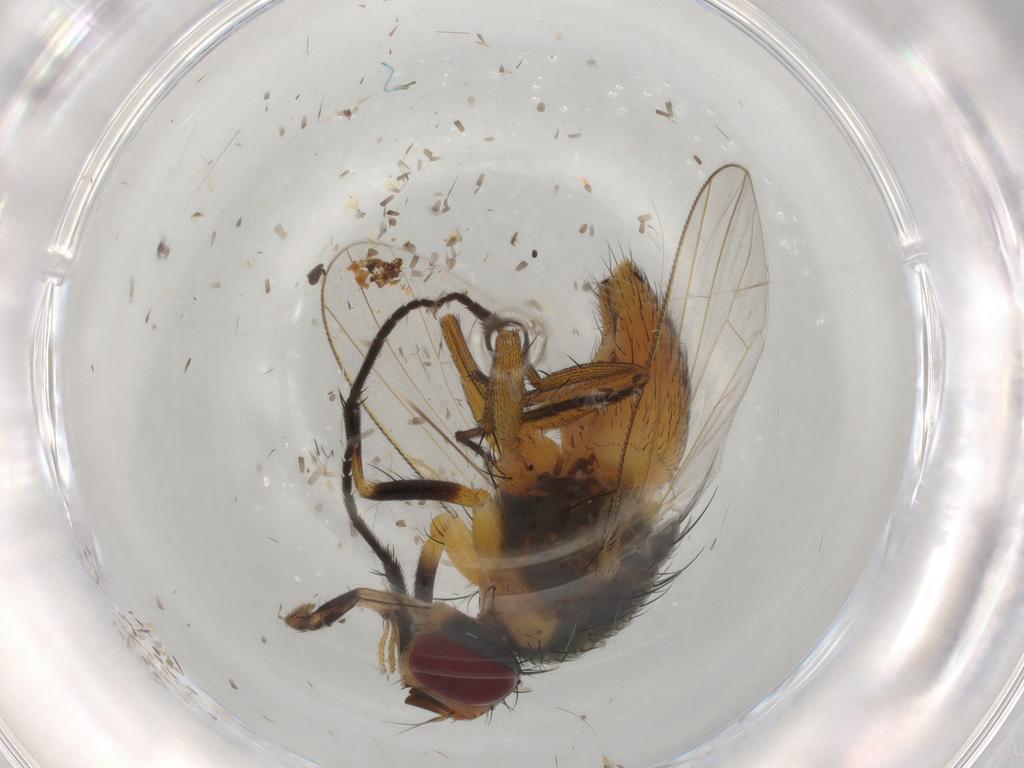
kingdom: Animalia
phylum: Arthropoda
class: Insecta
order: Diptera
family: Muscidae
